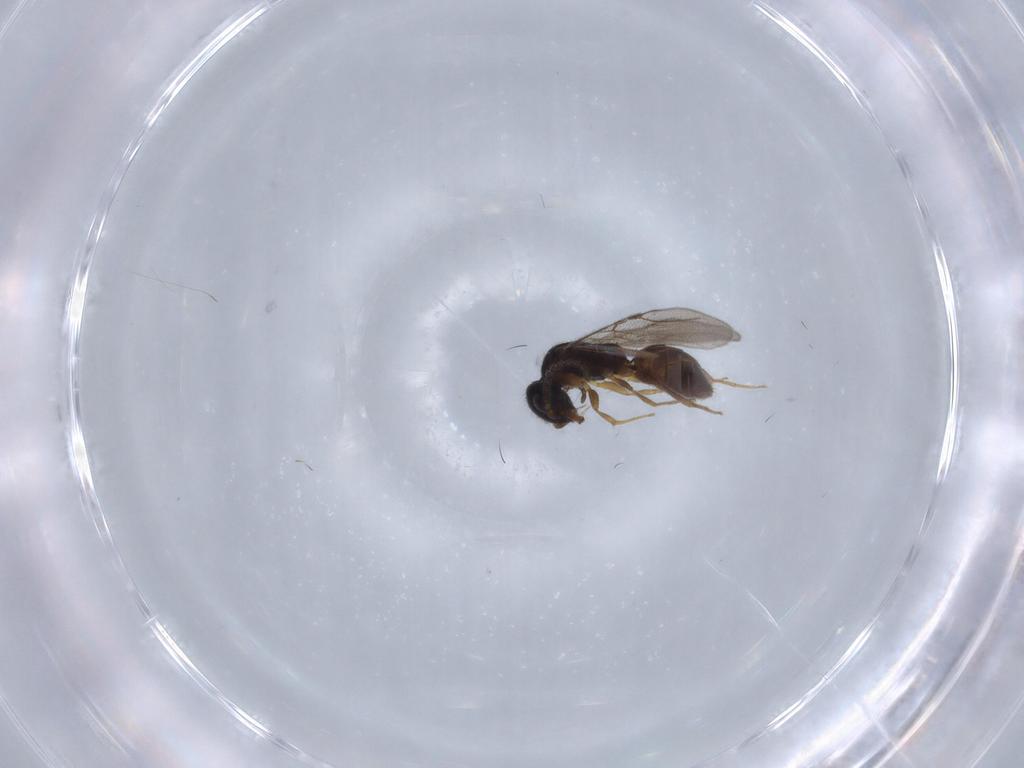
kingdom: Animalia
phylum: Arthropoda
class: Insecta
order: Hymenoptera
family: Bethylidae
